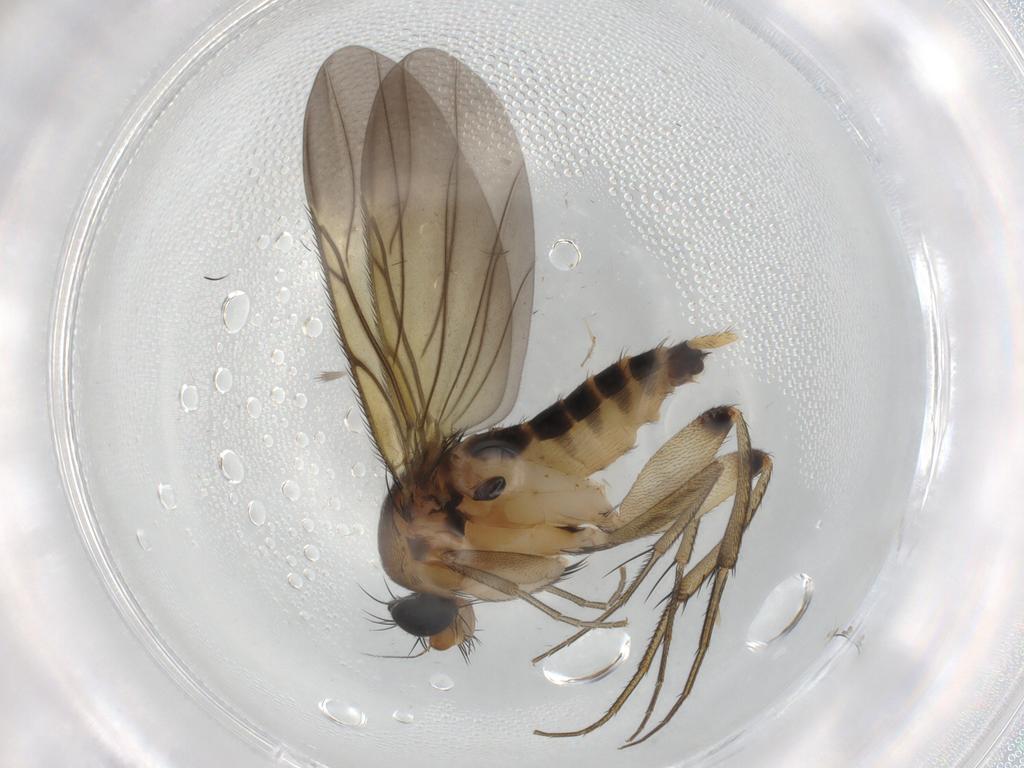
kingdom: Animalia
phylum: Arthropoda
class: Insecta
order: Diptera
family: Phoridae
